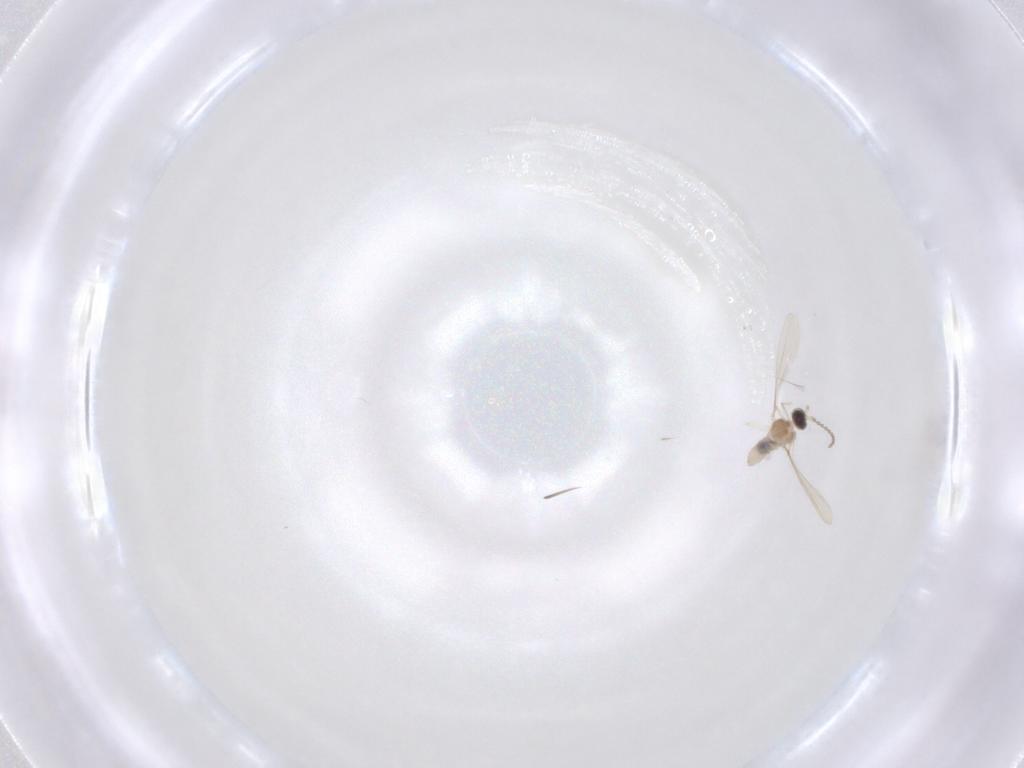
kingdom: Animalia
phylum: Arthropoda
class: Insecta
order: Diptera
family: Cecidomyiidae
